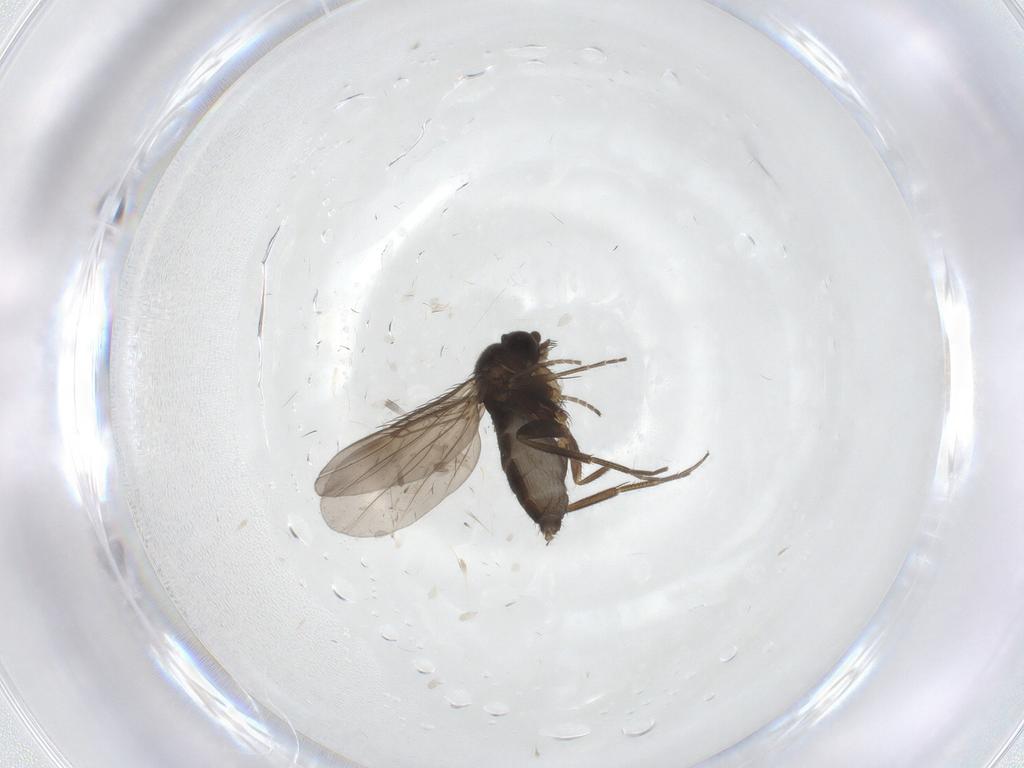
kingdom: Animalia
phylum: Arthropoda
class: Insecta
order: Diptera
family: Phoridae
